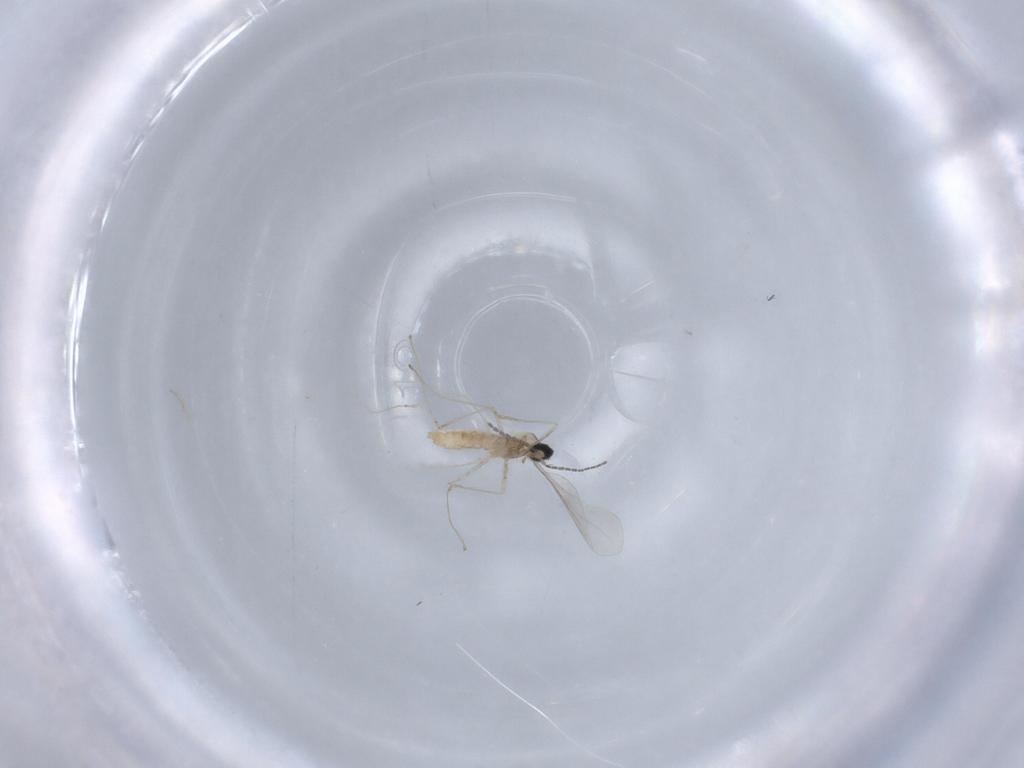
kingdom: Animalia
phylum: Arthropoda
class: Insecta
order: Diptera
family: Cecidomyiidae
